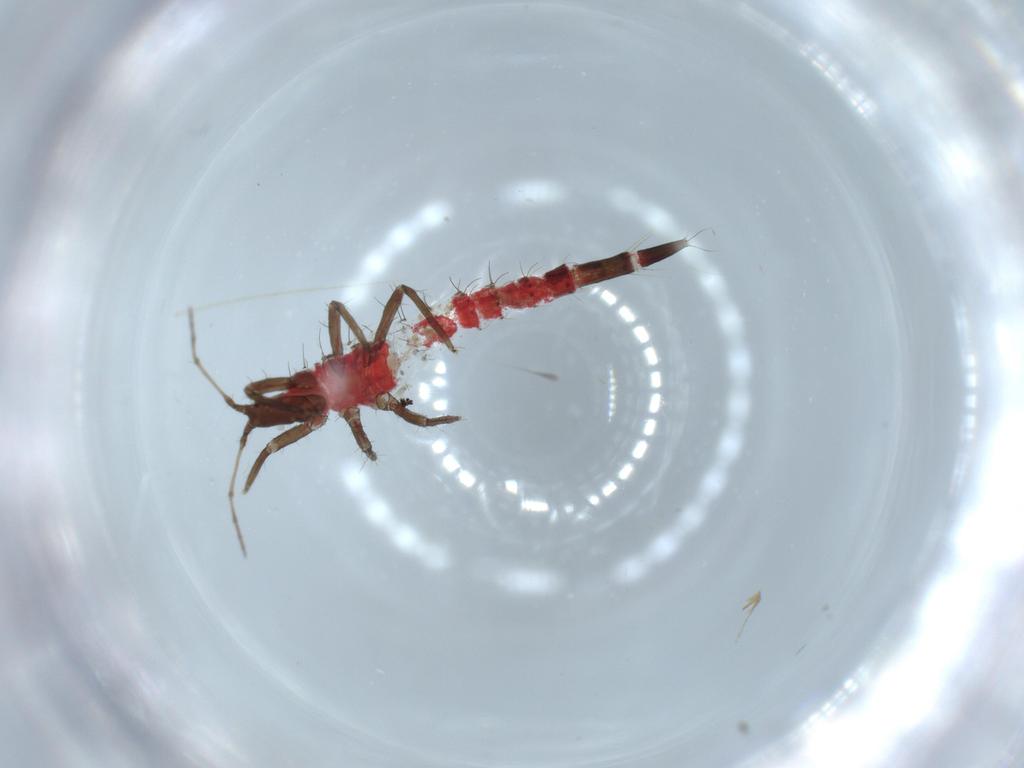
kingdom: Animalia
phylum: Arthropoda
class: Insecta
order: Thysanoptera
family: Phlaeothripidae
